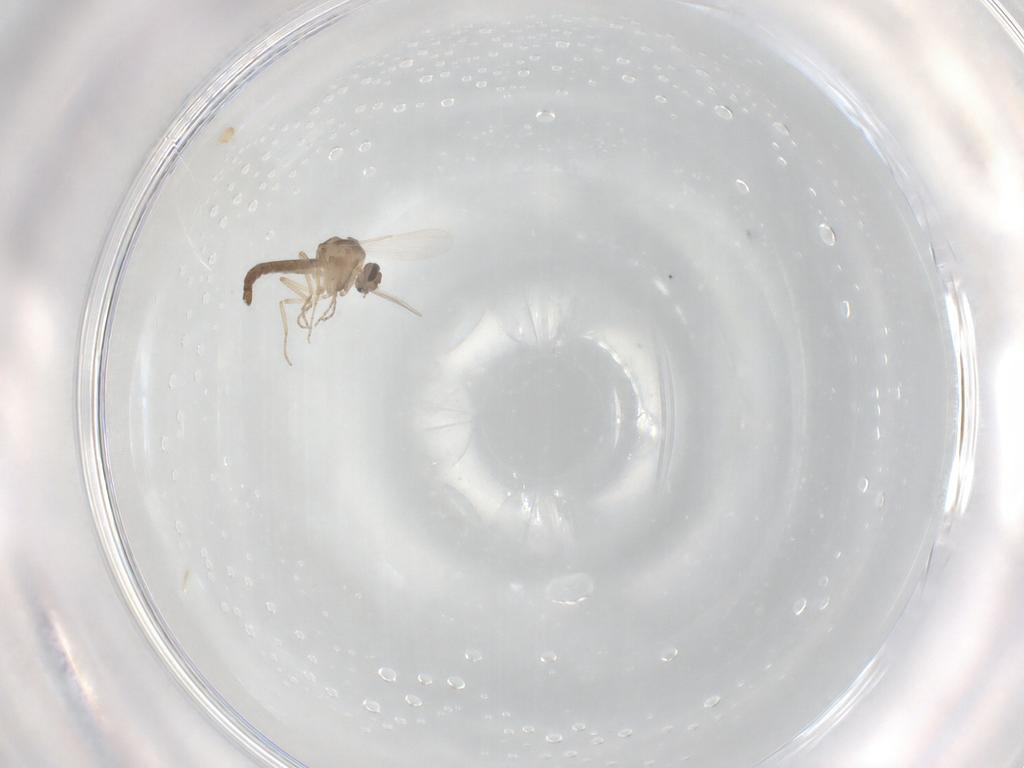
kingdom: Animalia
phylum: Arthropoda
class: Insecta
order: Diptera
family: Ceratopogonidae
